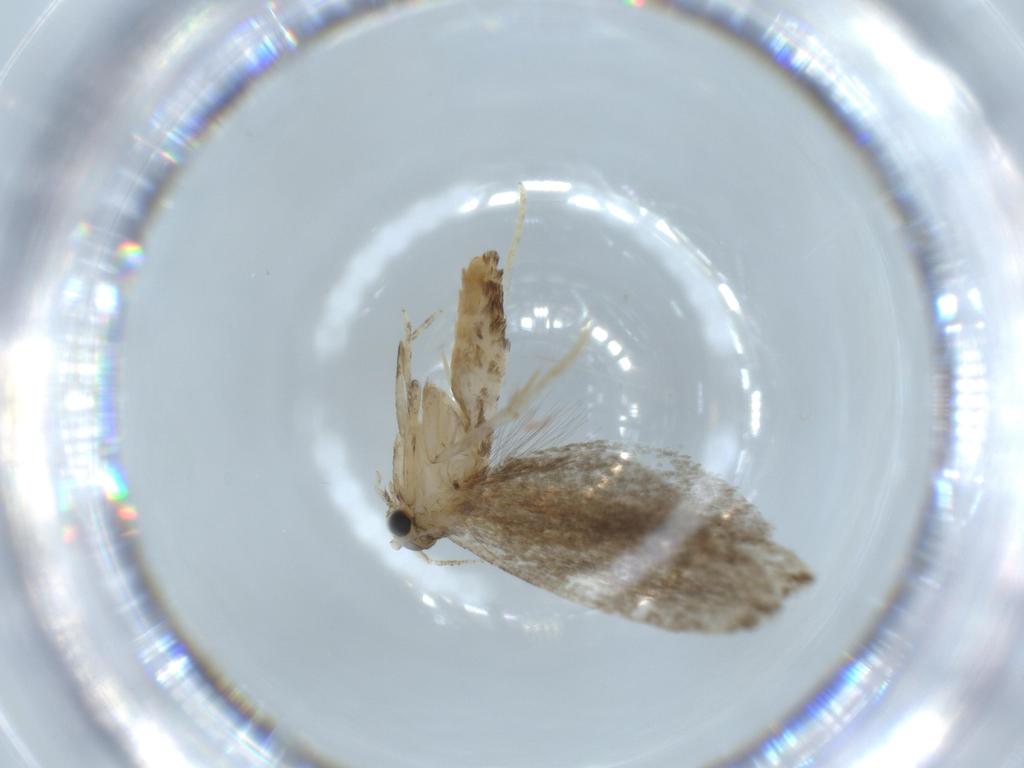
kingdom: Animalia
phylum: Arthropoda
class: Insecta
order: Lepidoptera
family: Tineidae
